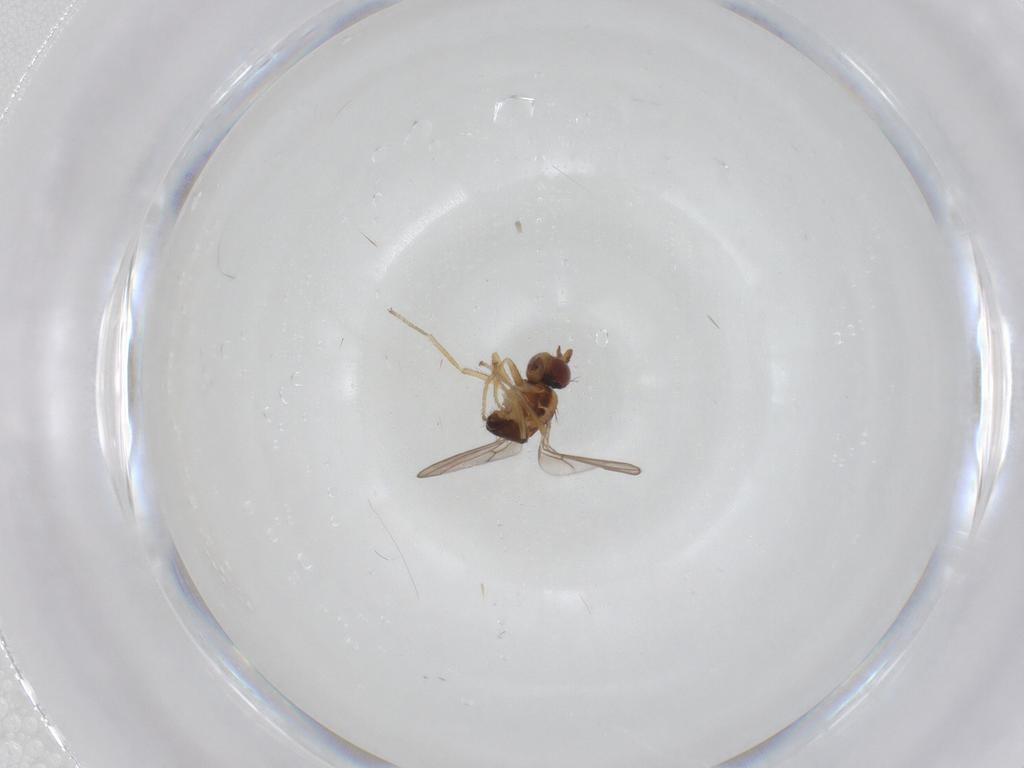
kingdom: Animalia
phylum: Arthropoda
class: Insecta
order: Diptera
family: Ephydridae
